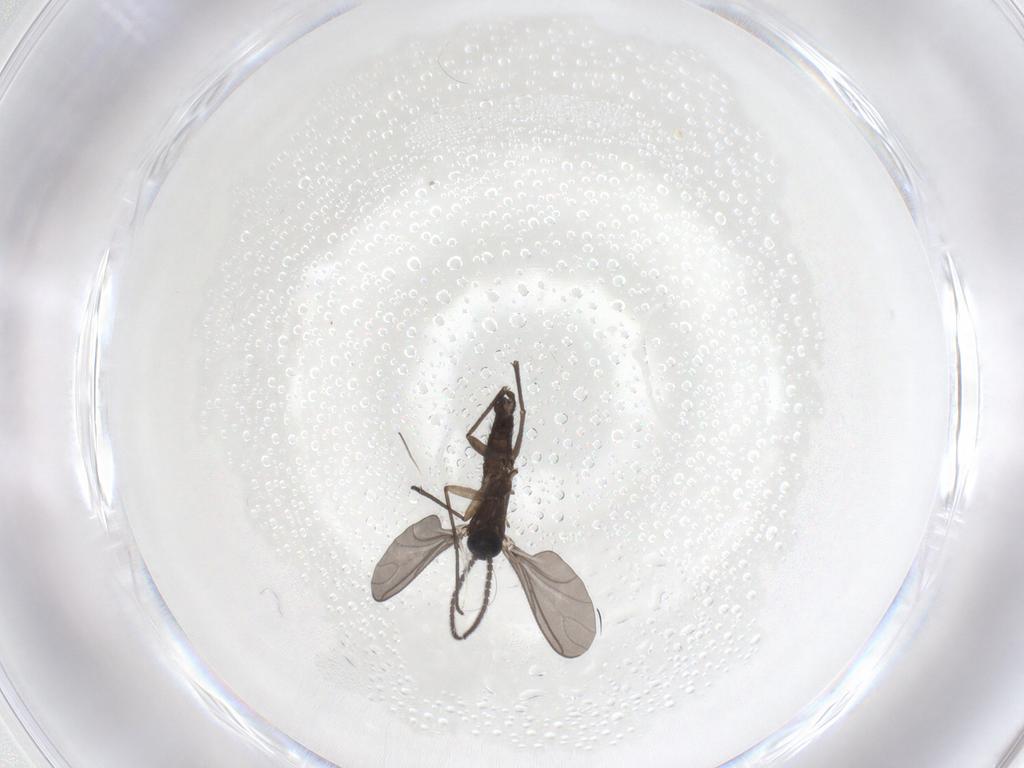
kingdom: Animalia
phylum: Arthropoda
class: Insecta
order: Diptera
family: Sciaridae
